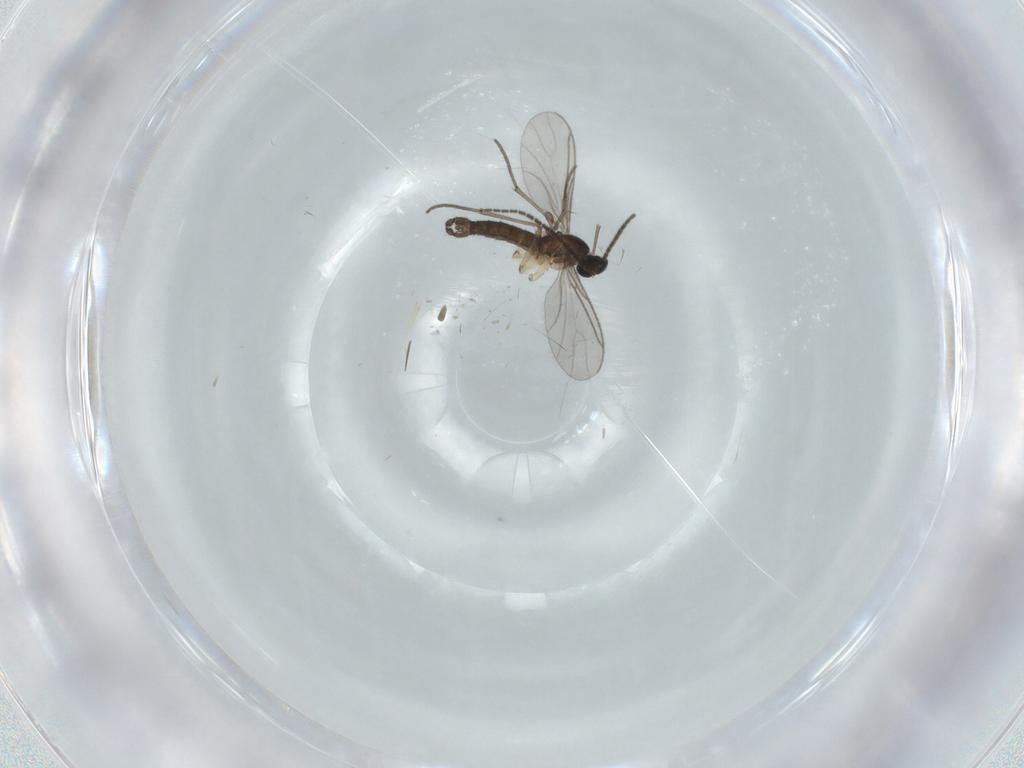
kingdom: Animalia
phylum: Arthropoda
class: Insecta
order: Diptera
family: Sciaridae
